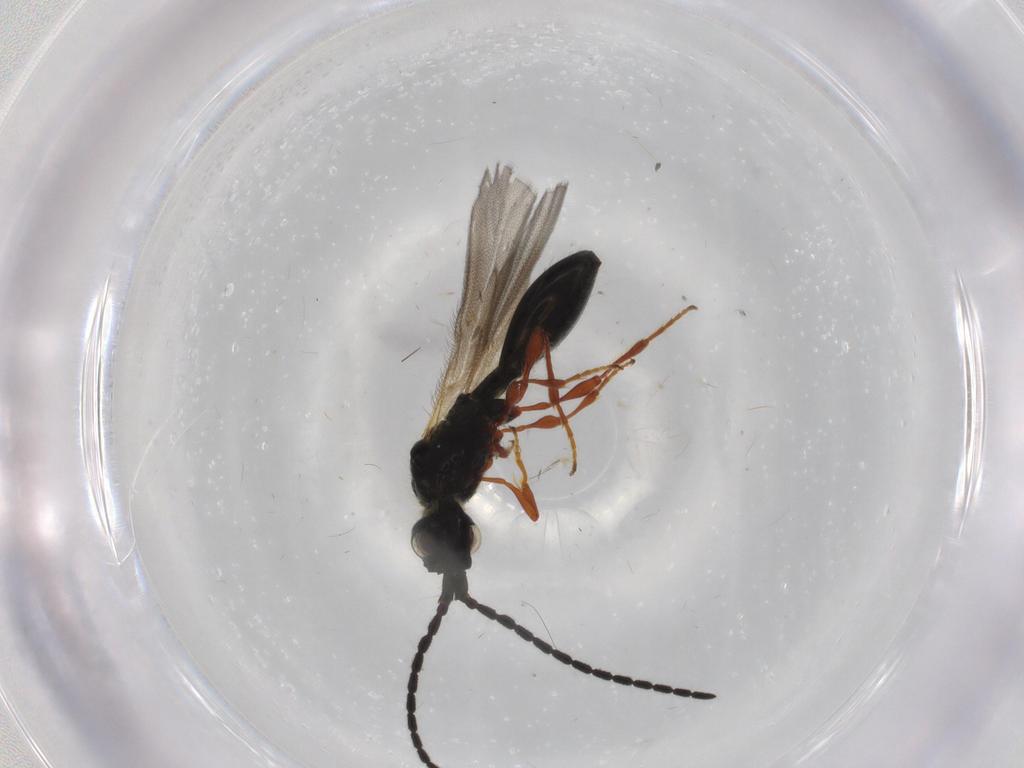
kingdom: Animalia
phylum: Arthropoda
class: Insecta
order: Hymenoptera
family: Diapriidae
